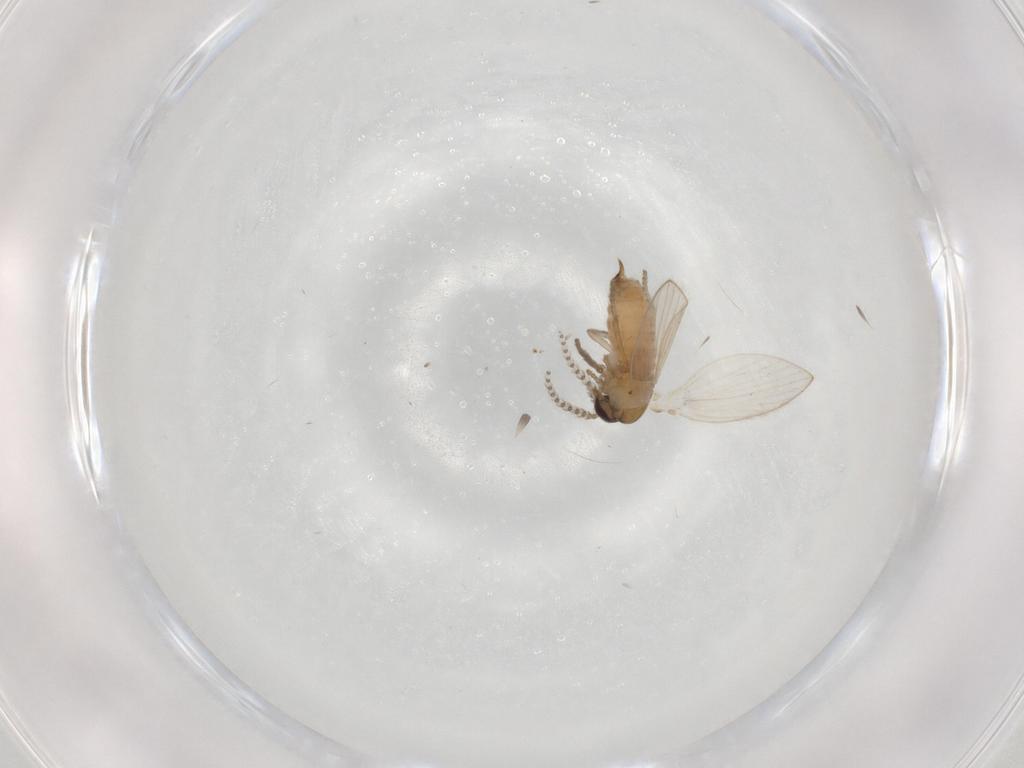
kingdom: Animalia
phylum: Arthropoda
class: Insecta
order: Diptera
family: Psychodidae
